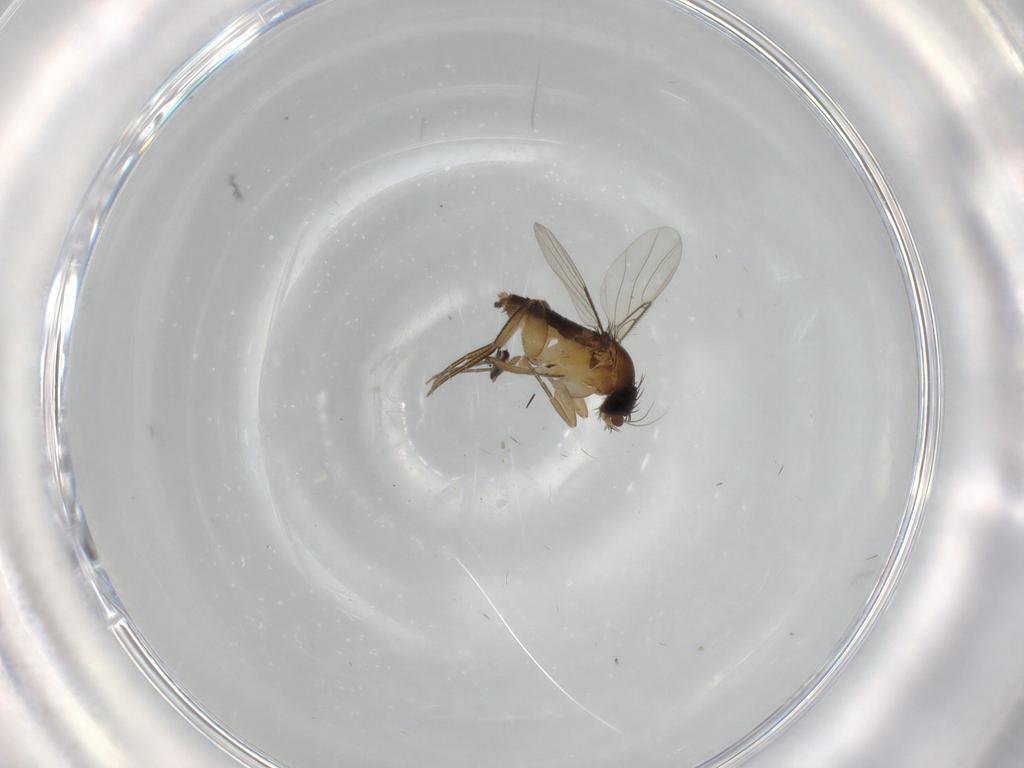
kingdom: Animalia
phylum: Arthropoda
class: Insecta
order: Diptera
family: Phoridae
